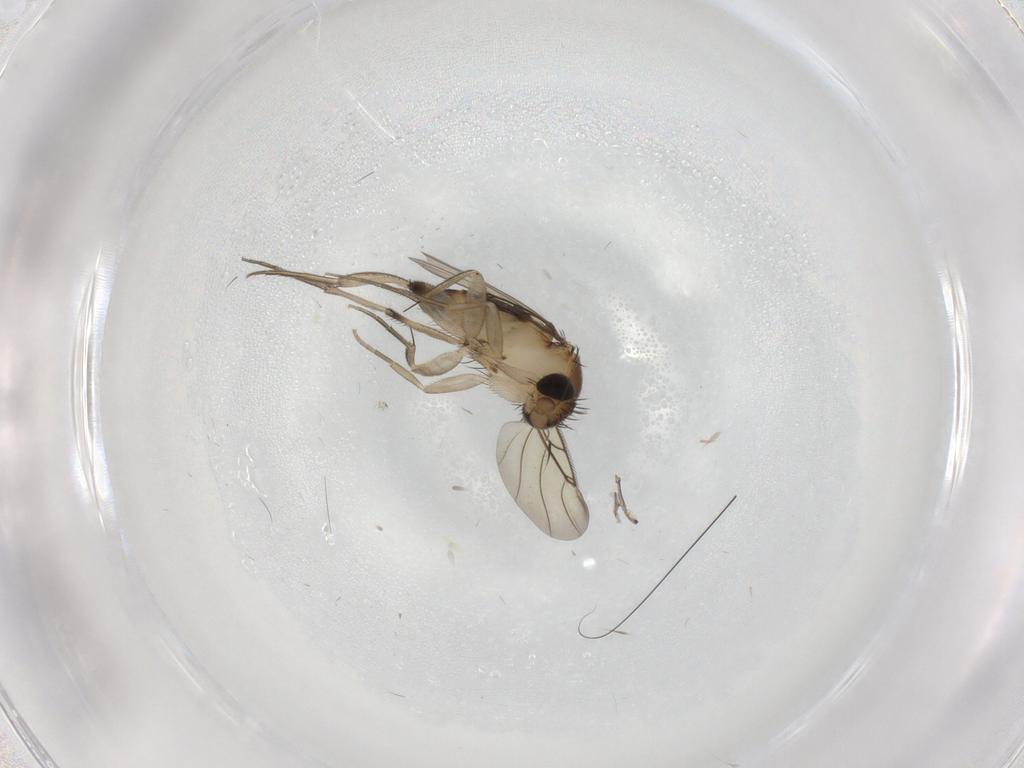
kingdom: Animalia
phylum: Arthropoda
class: Insecta
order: Diptera
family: Phoridae
